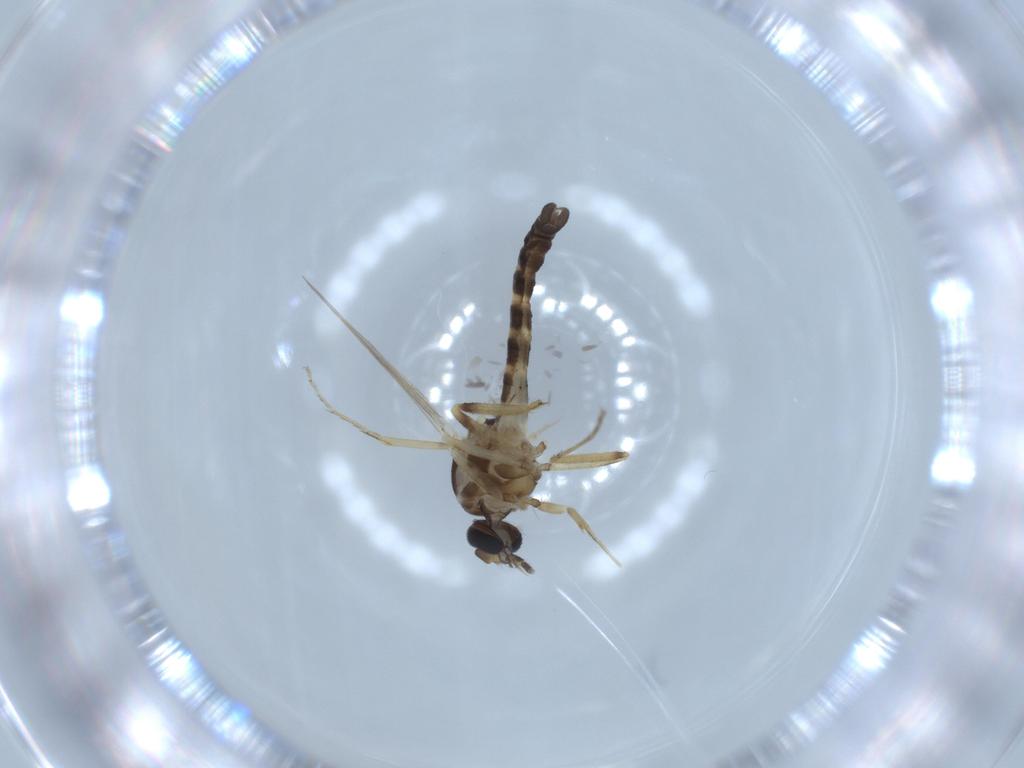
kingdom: Animalia
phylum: Arthropoda
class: Insecta
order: Diptera
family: Ceratopogonidae
